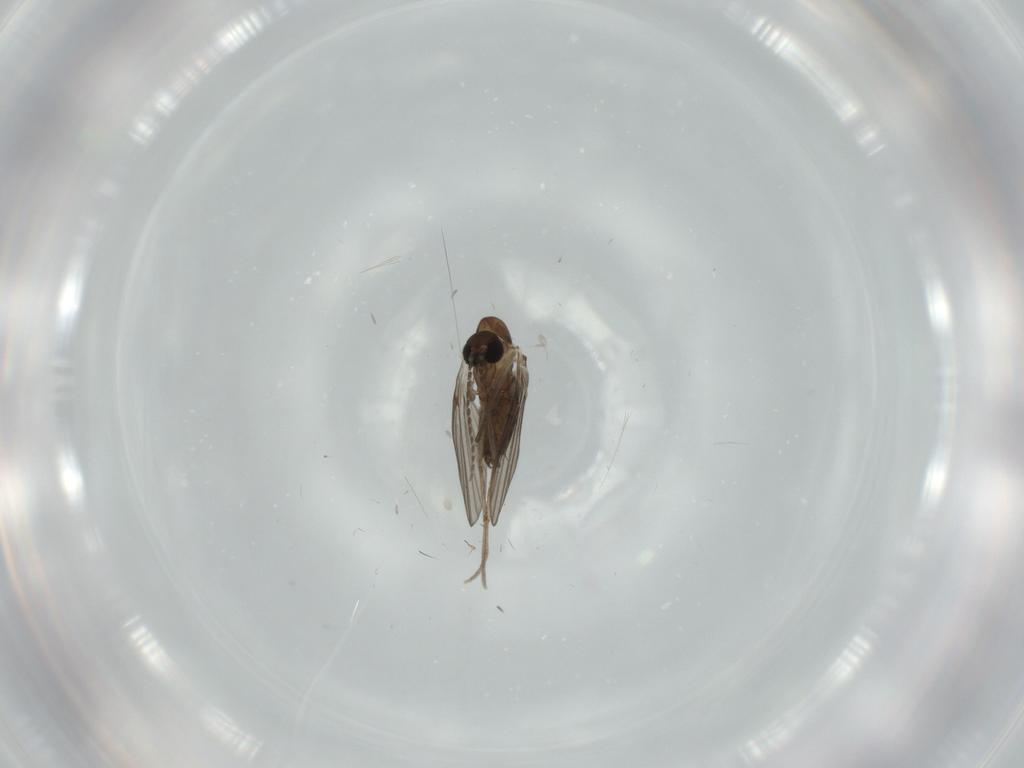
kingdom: Animalia
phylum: Arthropoda
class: Insecta
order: Diptera
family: Psychodidae
